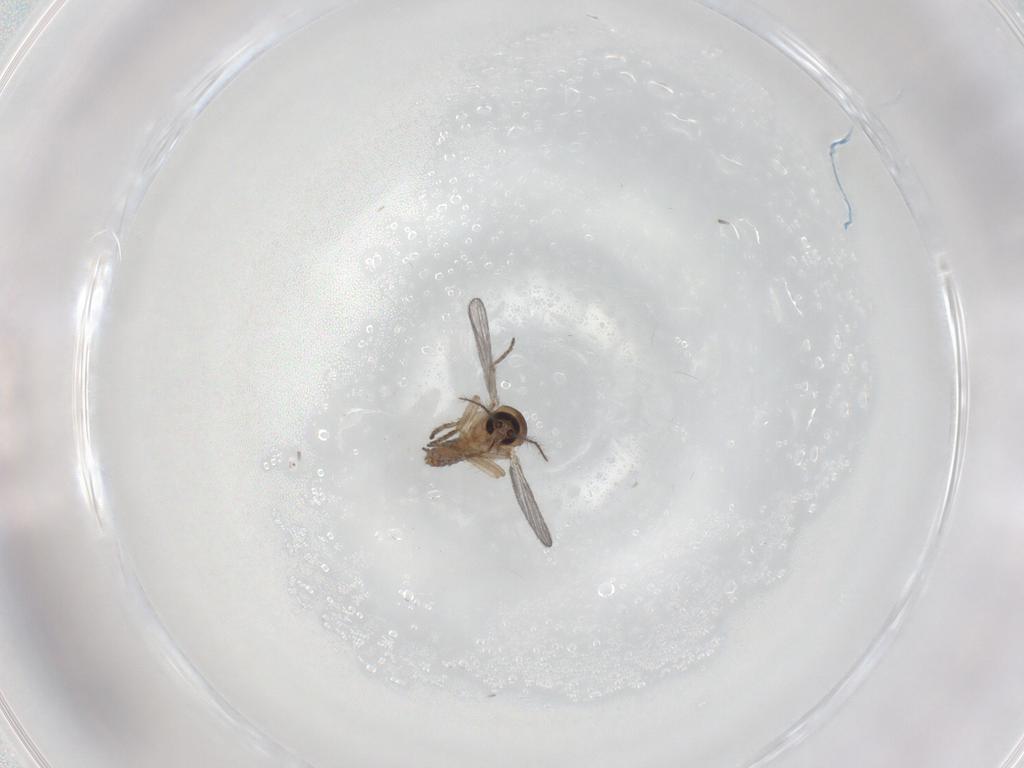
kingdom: Animalia
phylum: Arthropoda
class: Insecta
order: Diptera
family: Ceratopogonidae
